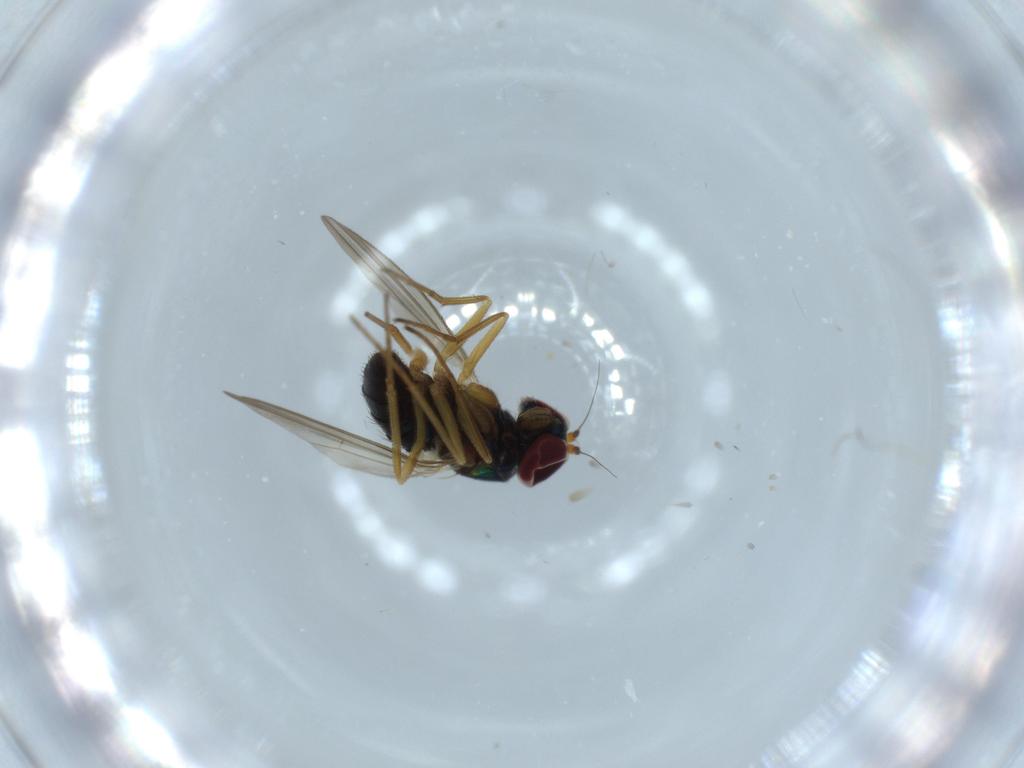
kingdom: Animalia
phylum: Arthropoda
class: Insecta
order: Diptera
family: Dolichopodidae
